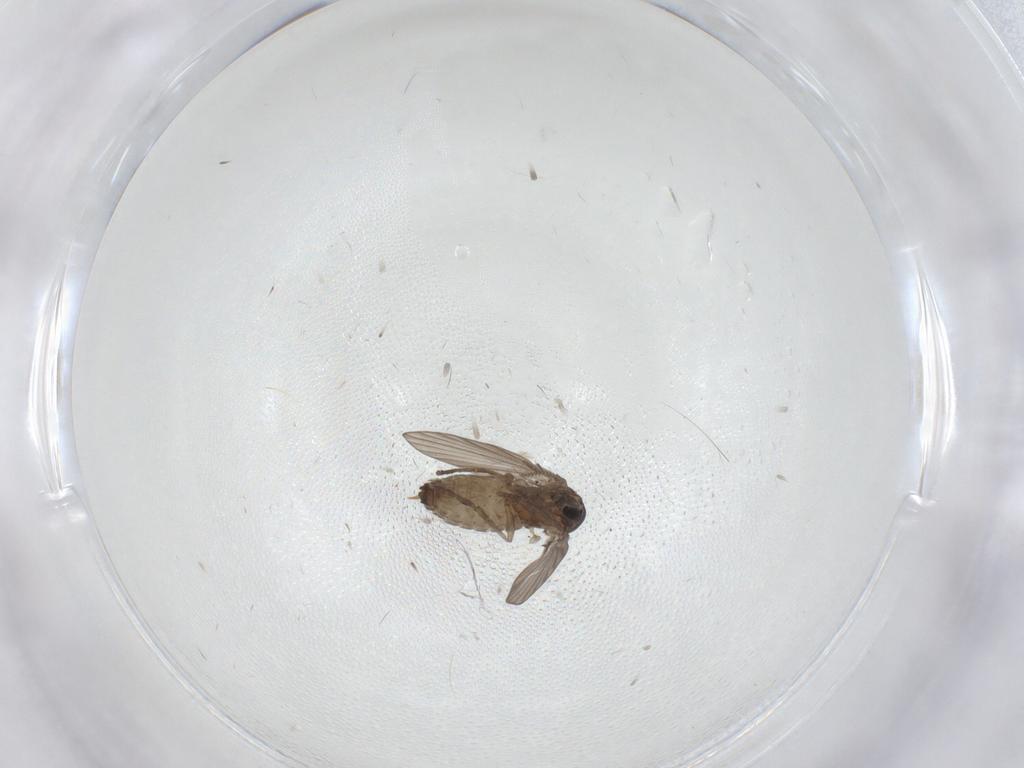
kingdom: Animalia
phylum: Arthropoda
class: Insecta
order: Diptera
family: Psychodidae
